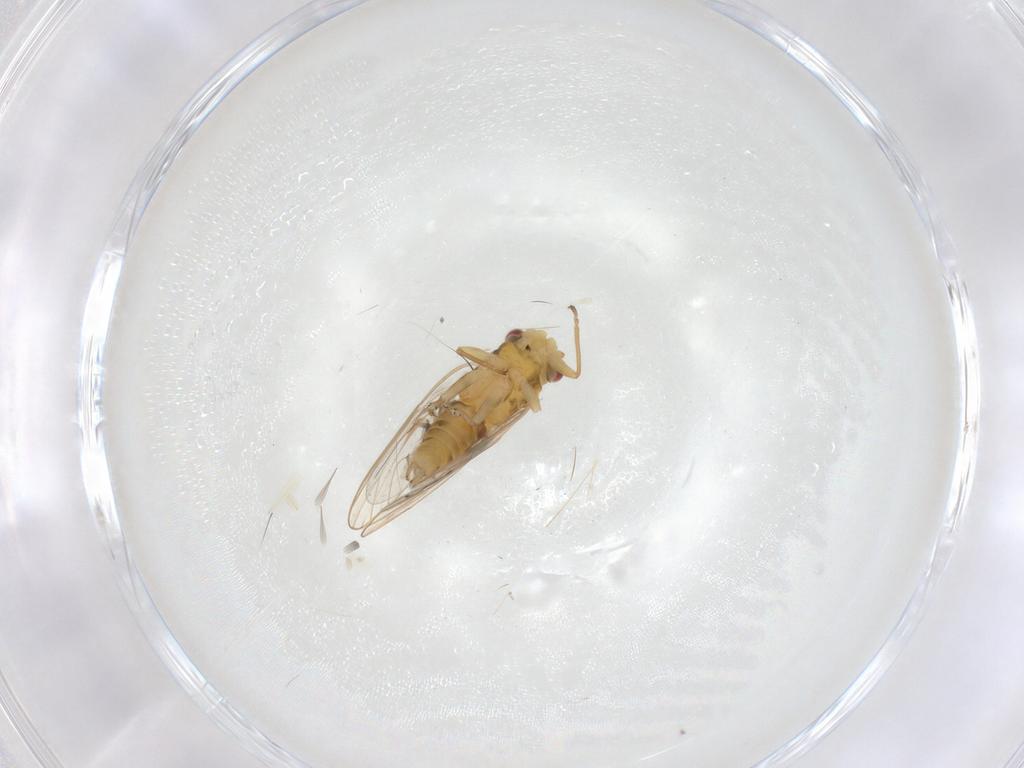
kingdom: Animalia
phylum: Arthropoda
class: Insecta
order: Hemiptera
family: Psyllidae
